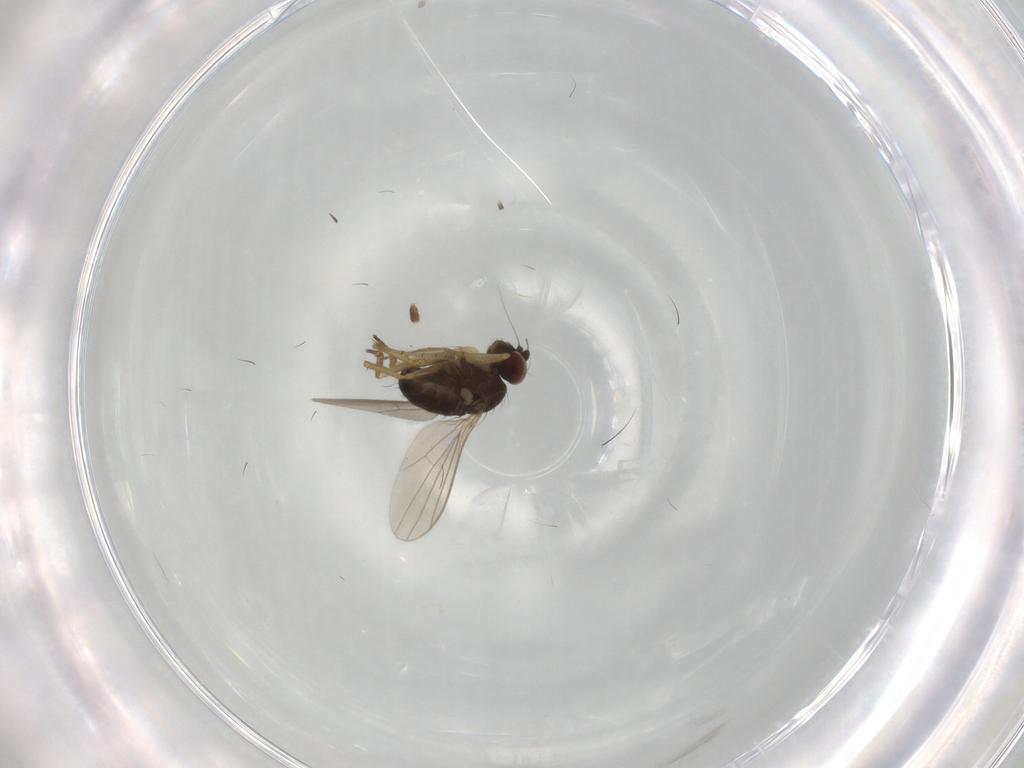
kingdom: Animalia
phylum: Arthropoda
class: Insecta
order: Diptera
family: Dolichopodidae
